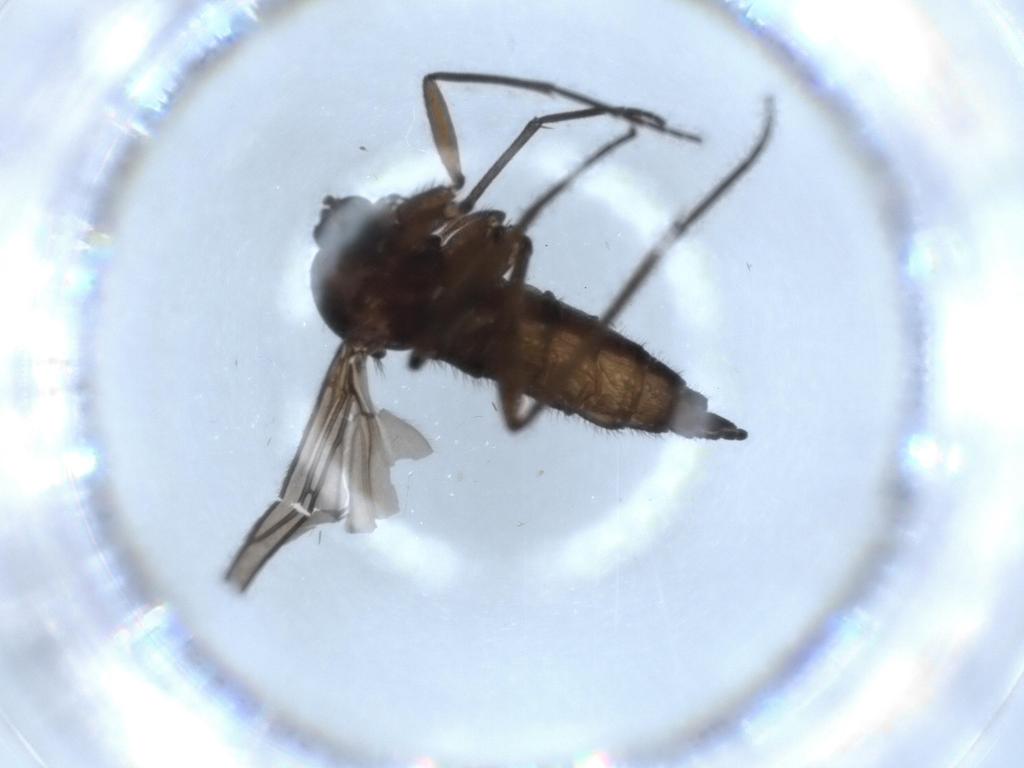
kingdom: Animalia
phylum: Arthropoda
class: Insecta
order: Diptera
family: Sciaridae
